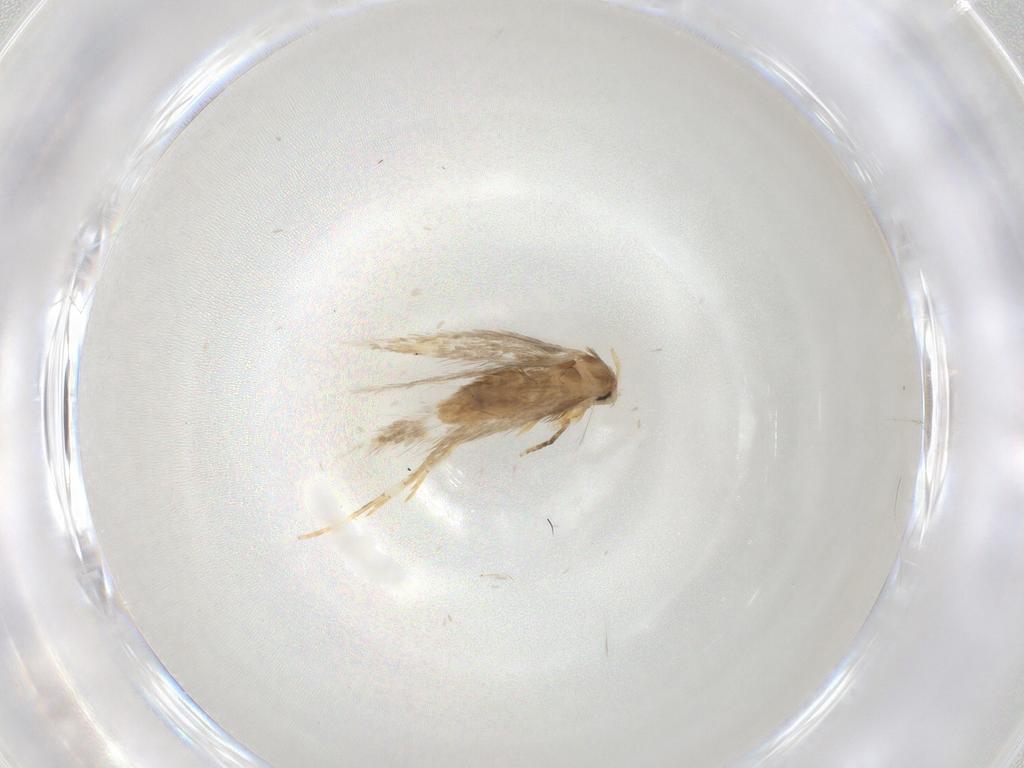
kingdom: Animalia
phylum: Arthropoda
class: Insecta
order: Lepidoptera
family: Nepticulidae
